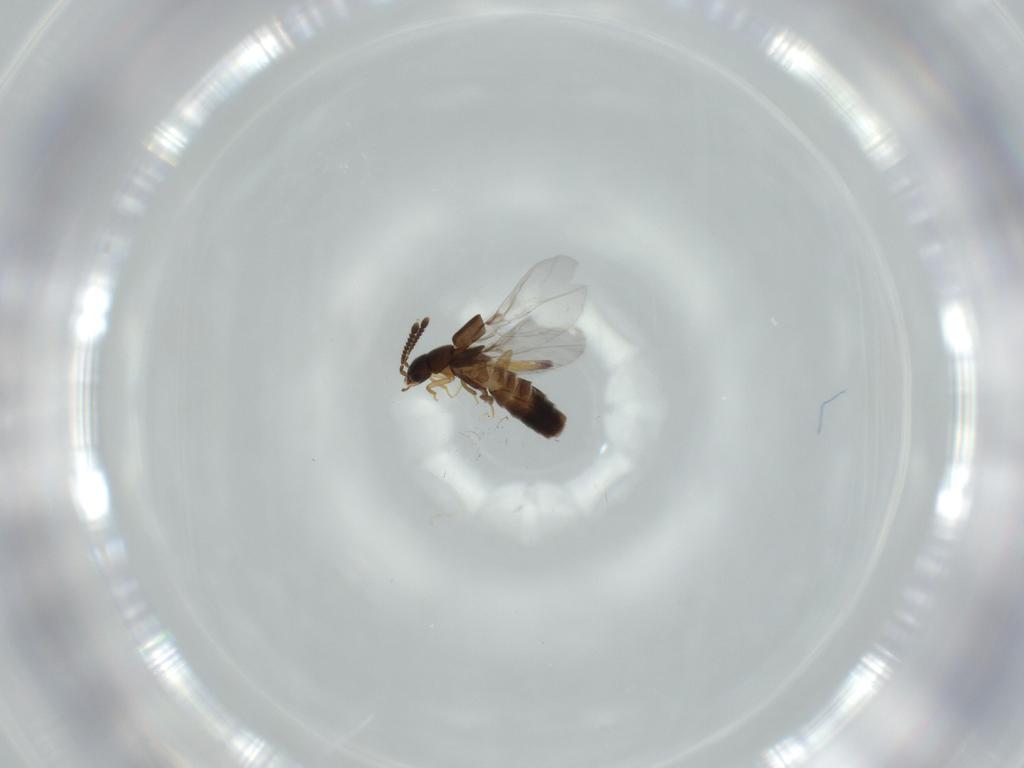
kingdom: Animalia
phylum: Arthropoda
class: Insecta
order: Coleoptera
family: Staphylinidae
